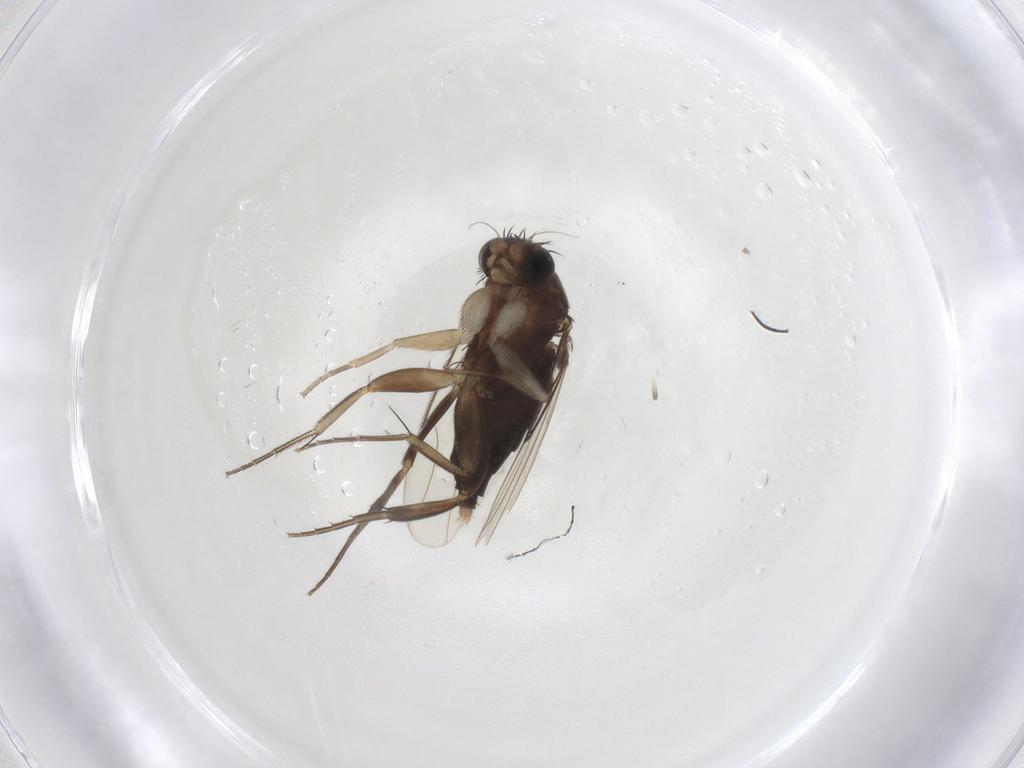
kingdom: Animalia
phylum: Arthropoda
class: Insecta
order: Diptera
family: Phoridae
